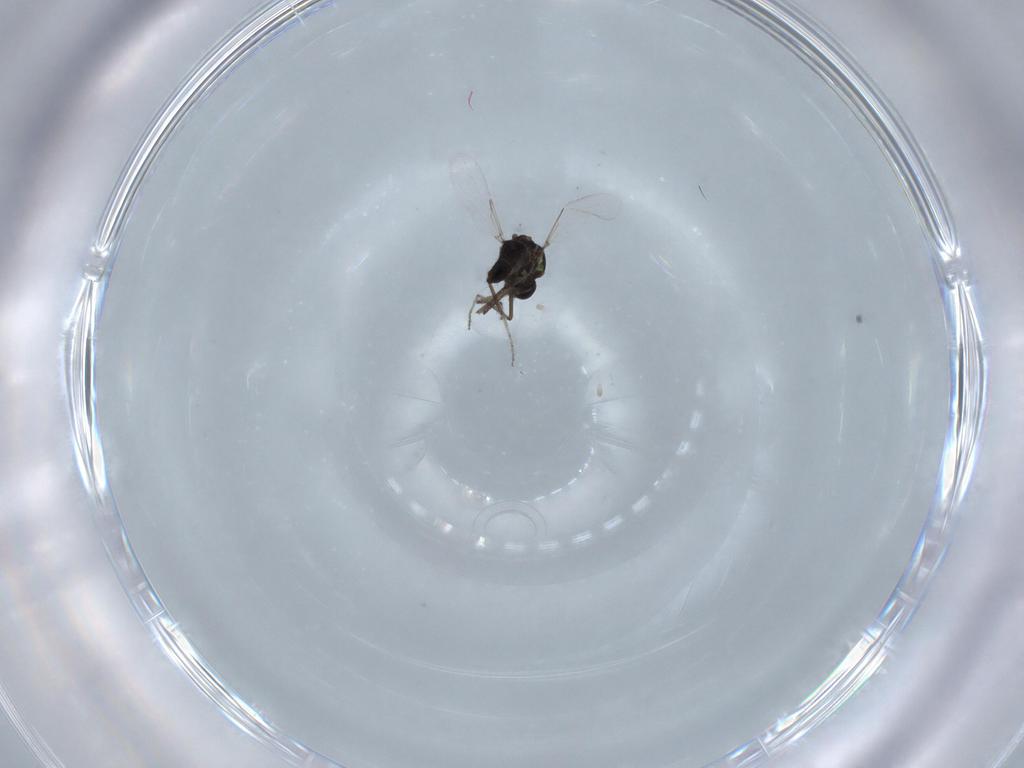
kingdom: Animalia
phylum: Arthropoda
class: Insecta
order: Diptera
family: Ceratopogonidae
